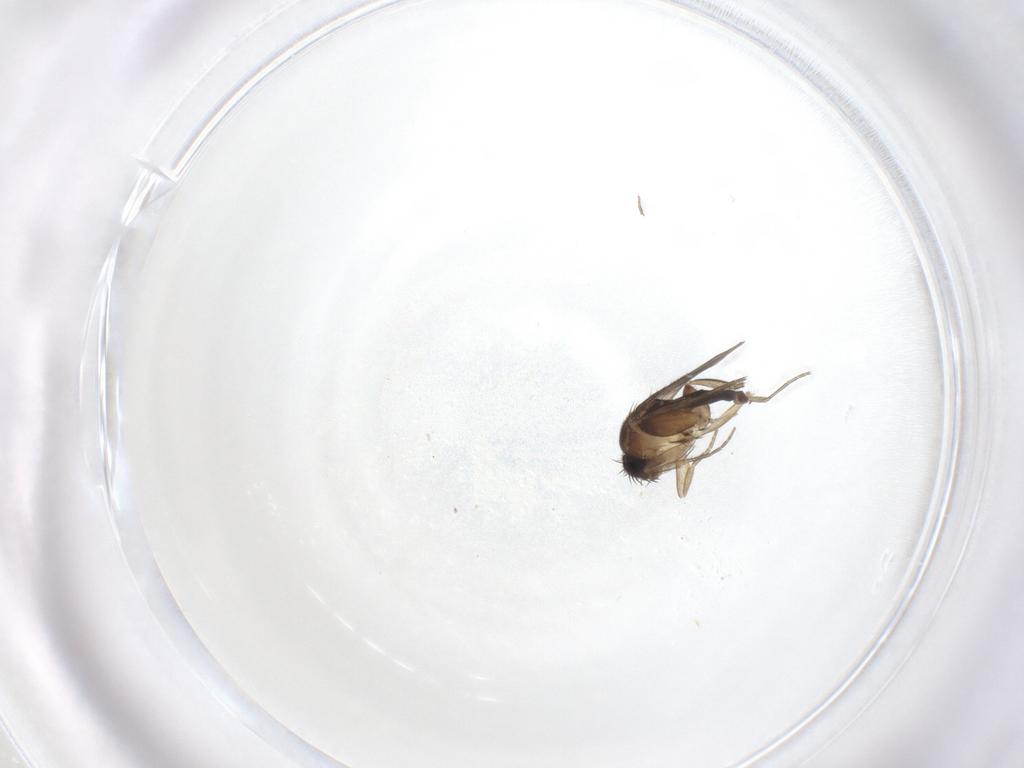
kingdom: Animalia
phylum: Arthropoda
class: Insecta
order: Diptera
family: Phoridae
